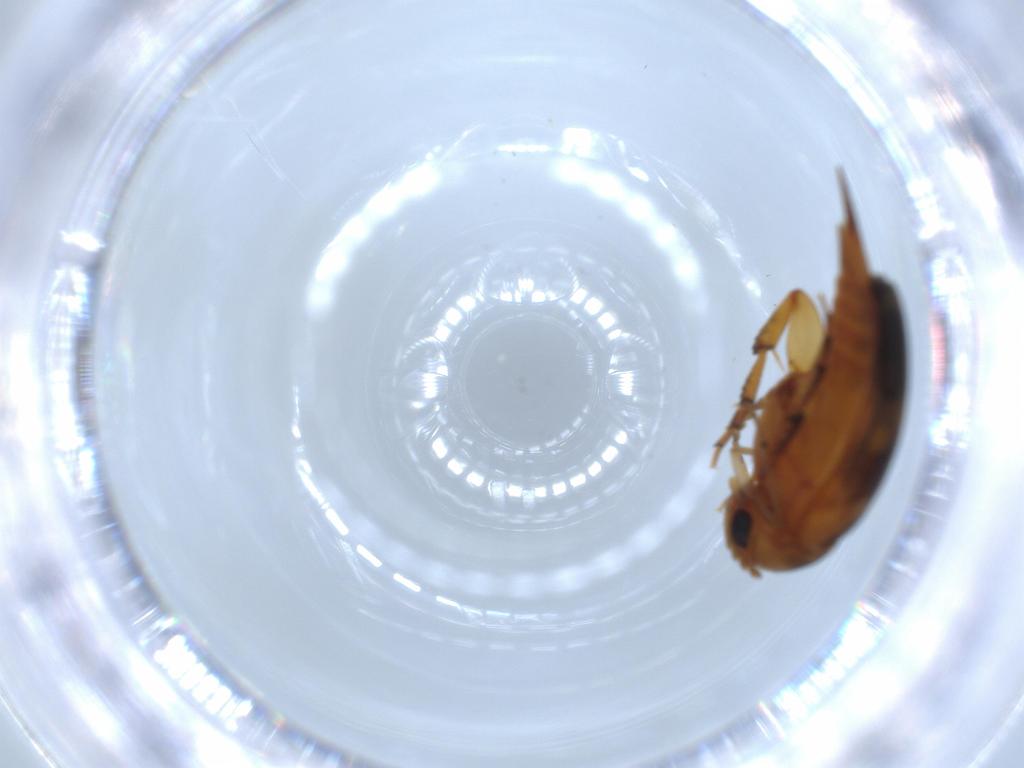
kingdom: Animalia
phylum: Arthropoda
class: Insecta
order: Coleoptera
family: Mordellidae
